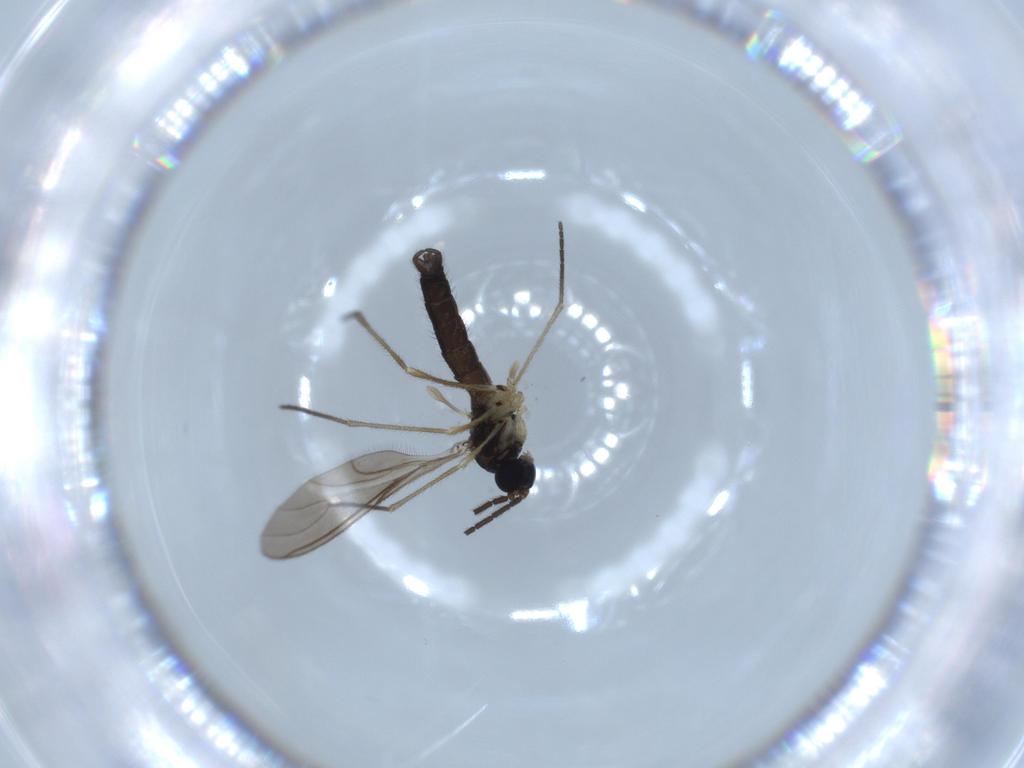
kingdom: Animalia
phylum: Arthropoda
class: Insecta
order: Diptera
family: Sciaridae
